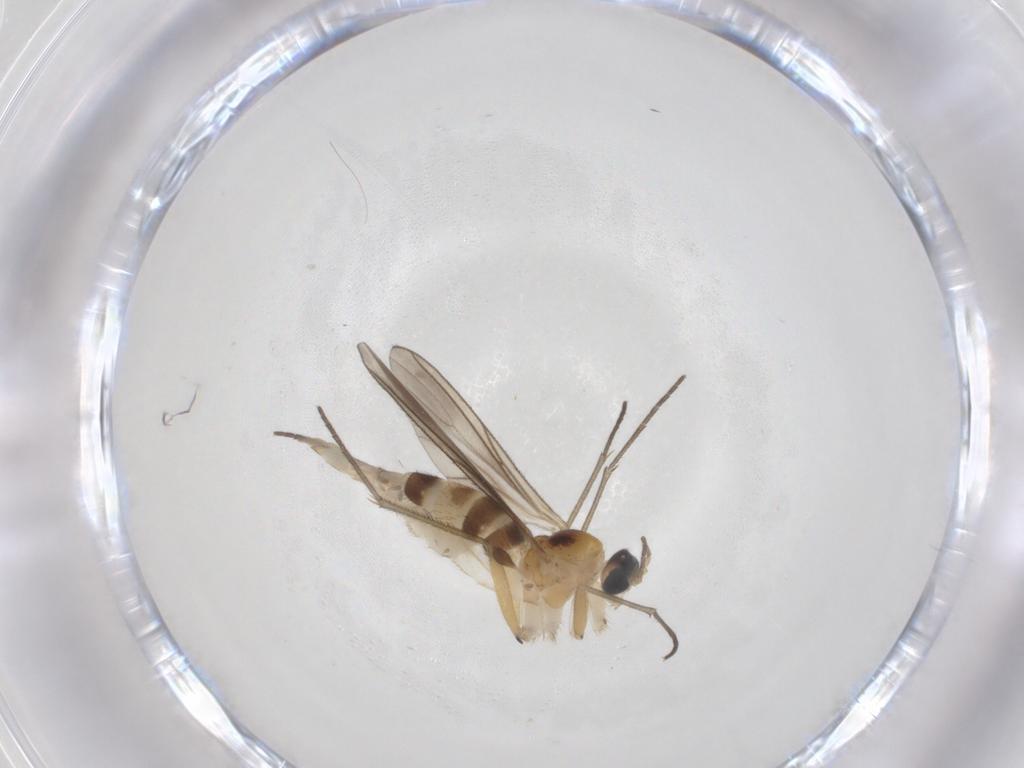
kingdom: Animalia
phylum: Arthropoda
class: Insecta
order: Diptera
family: Sciaridae
